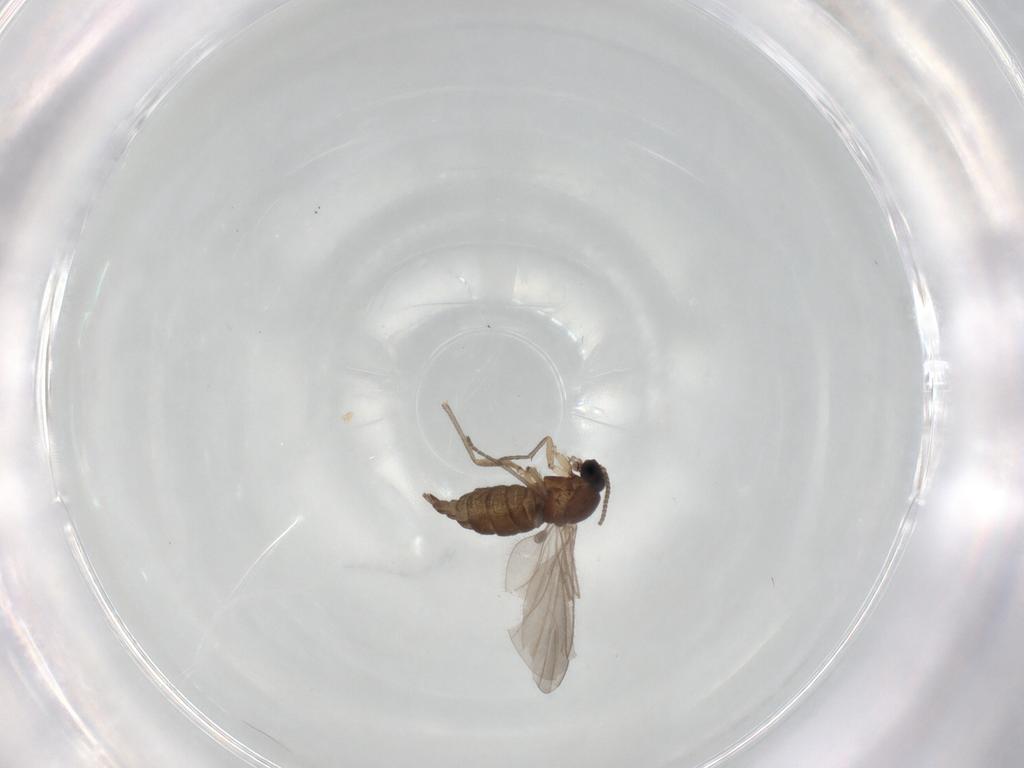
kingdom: Animalia
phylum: Arthropoda
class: Insecta
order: Diptera
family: Sciaridae
